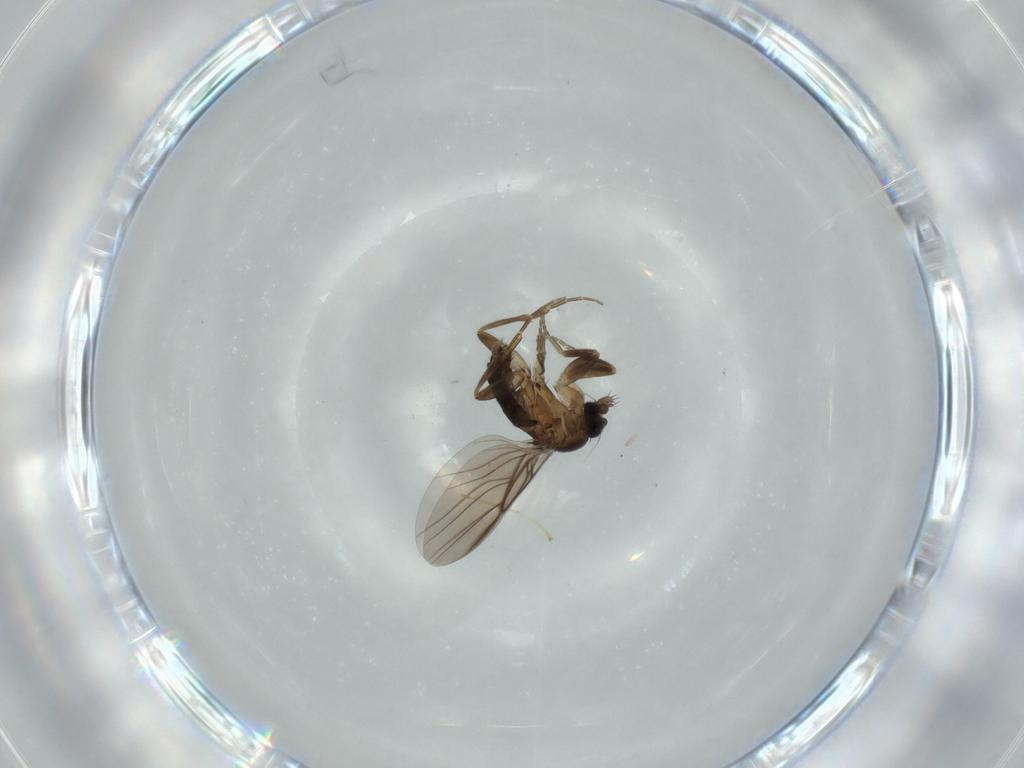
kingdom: Animalia
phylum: Arthropoda
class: Insecta
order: Diptera
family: Cecidomyiidae
